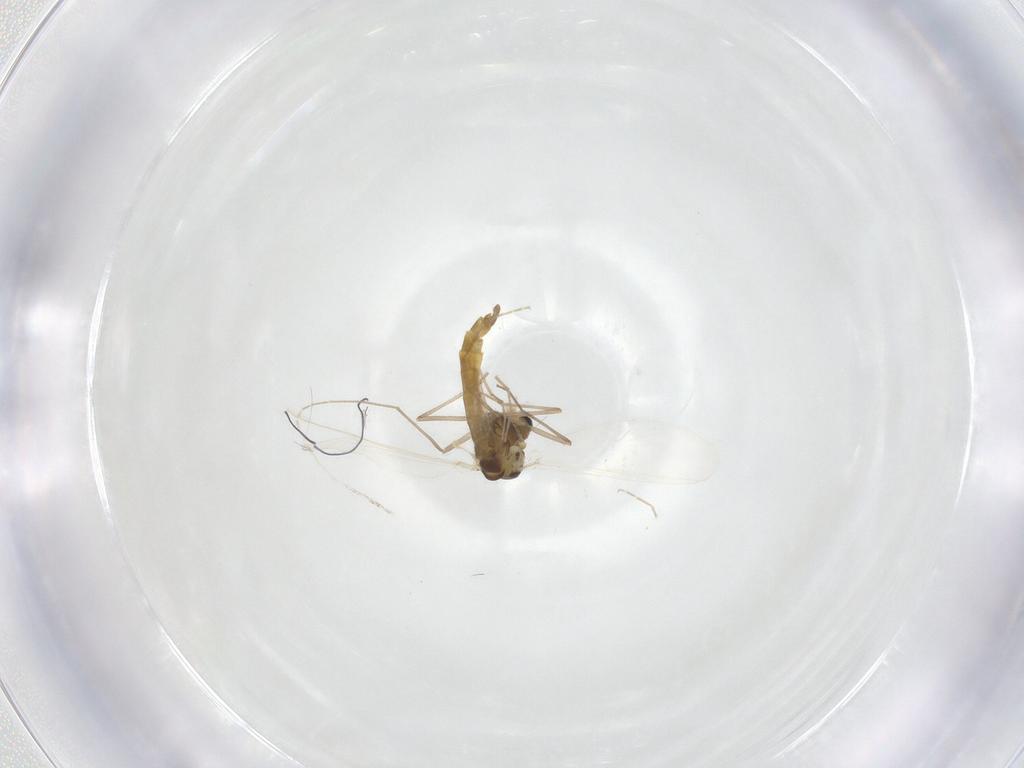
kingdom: Animalia
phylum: Arthropoda
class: Insecta
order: Diptera
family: Chironomidae
